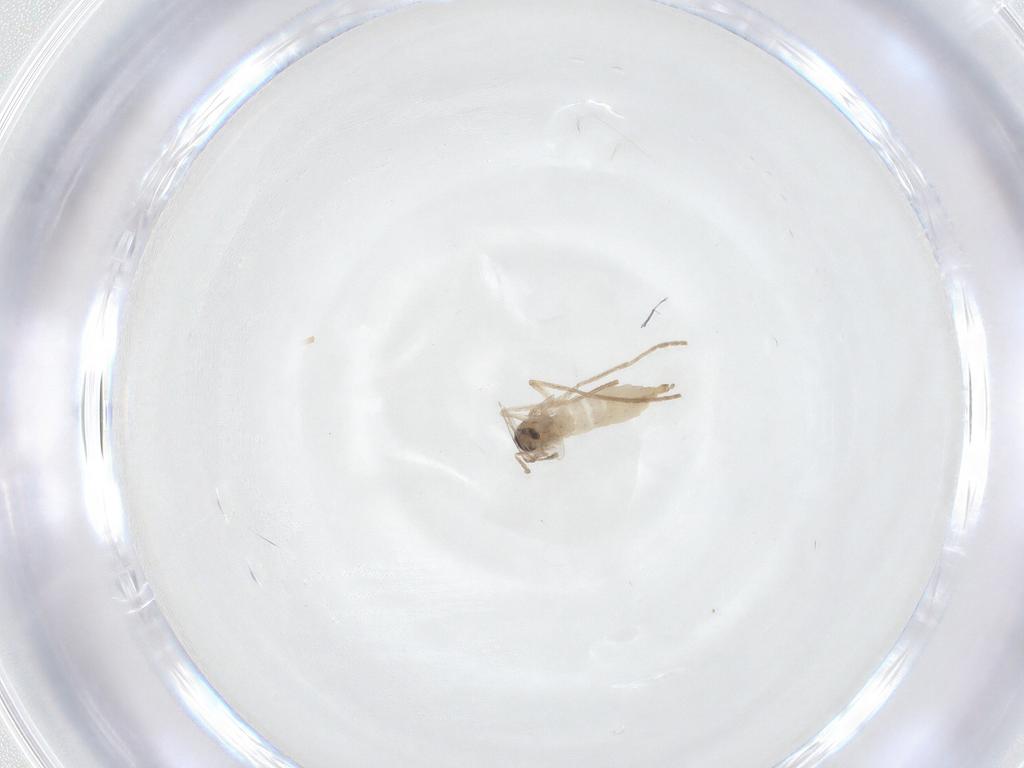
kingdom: Animalia
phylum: Arthropoda
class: Insecta
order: Diptera
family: Cecidomyiidae
